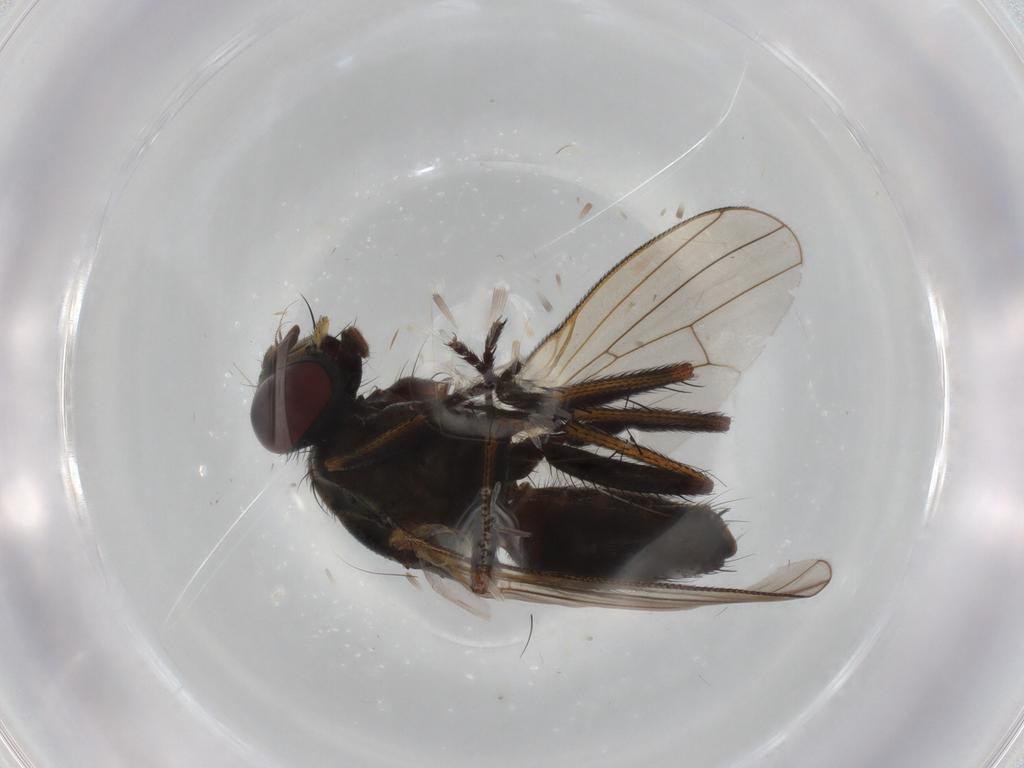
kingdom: Animalia
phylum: Arthropoda
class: Insecta
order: Diptera
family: Muscidae
